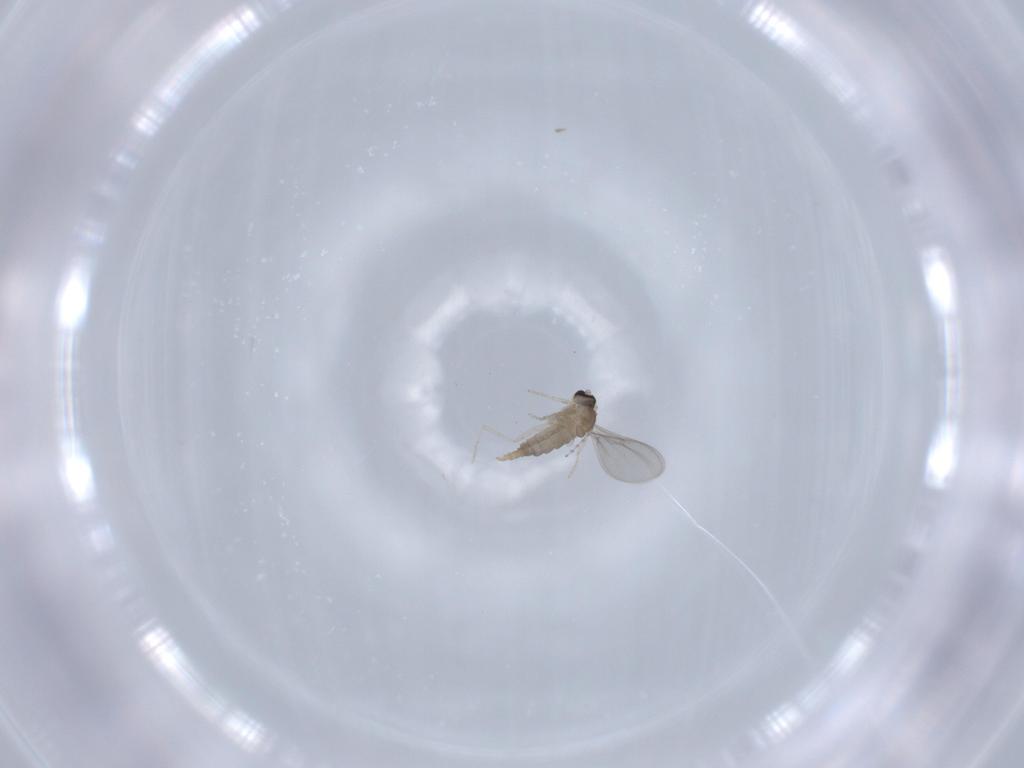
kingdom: Animalia
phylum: Arthropoda
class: Insecta
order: Diptera
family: Cecidomyiidae
